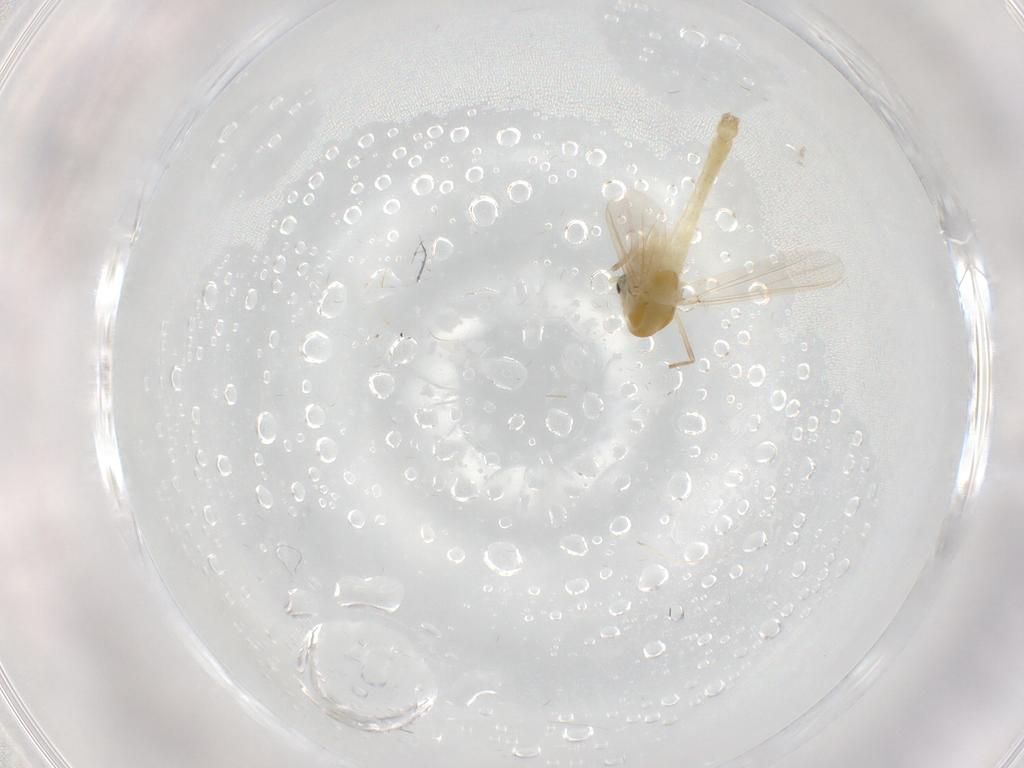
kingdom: Animalia
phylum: Arthropoda
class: Insecta
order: Diptera
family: Chironomidae
